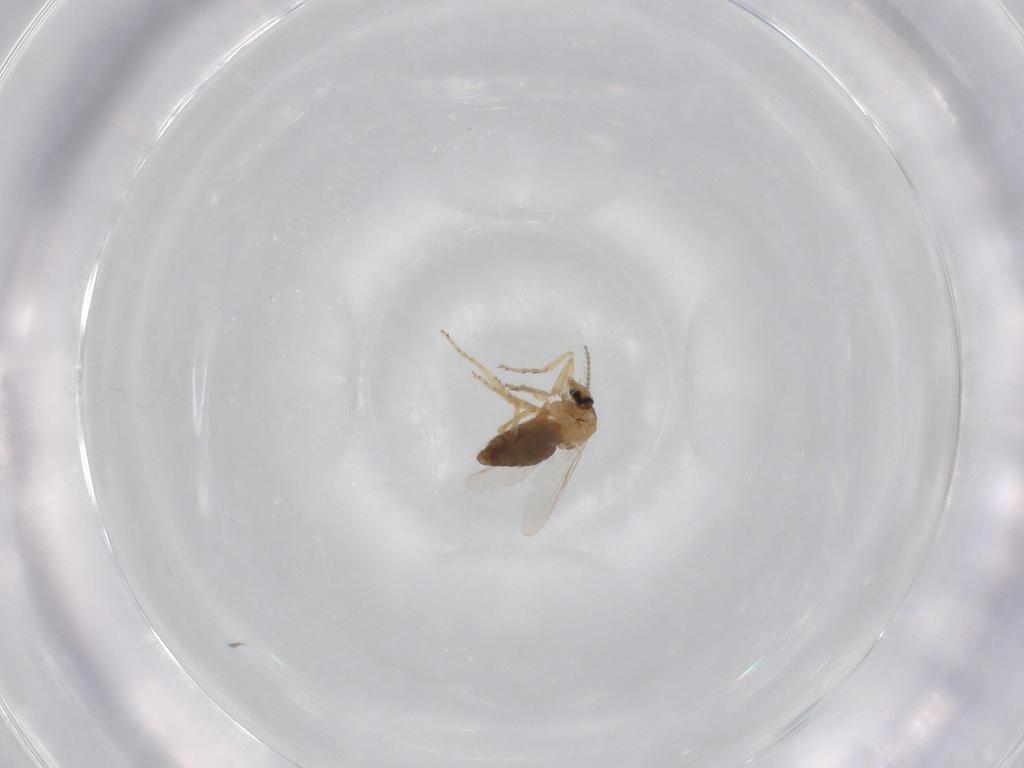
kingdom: Animalia
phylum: Arthropoda
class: Insecta
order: Diptera
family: Ceratopogonidae
